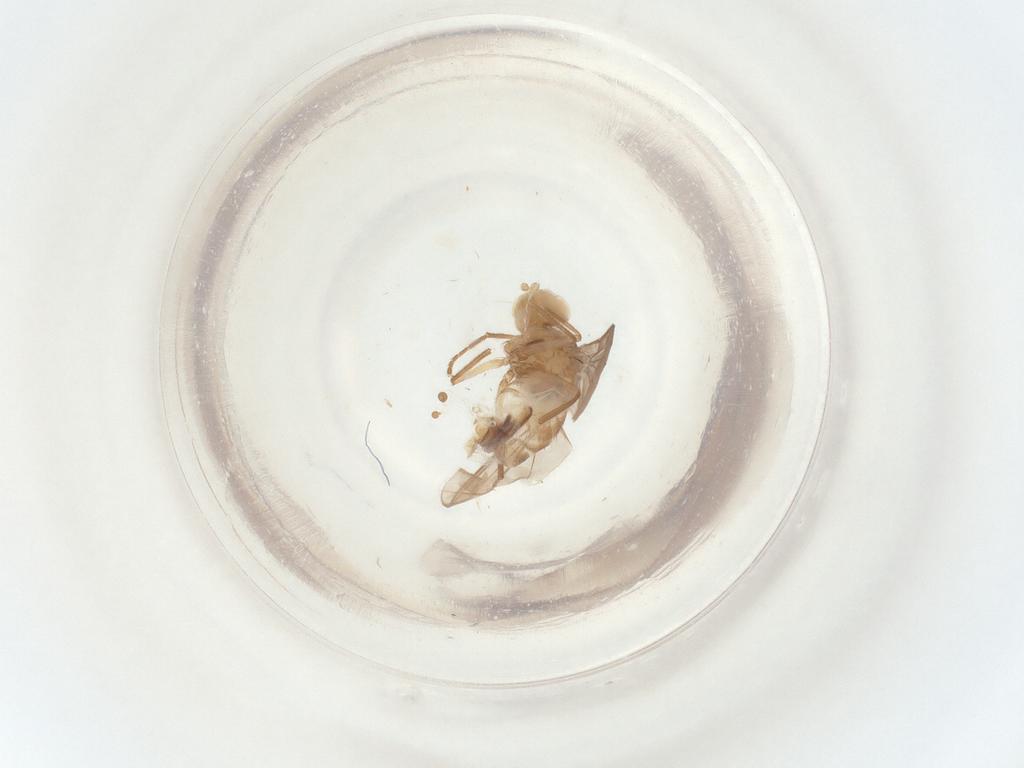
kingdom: Animalia
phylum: Arthropoda
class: Insecta
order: Diptera
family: Agromyzidae
